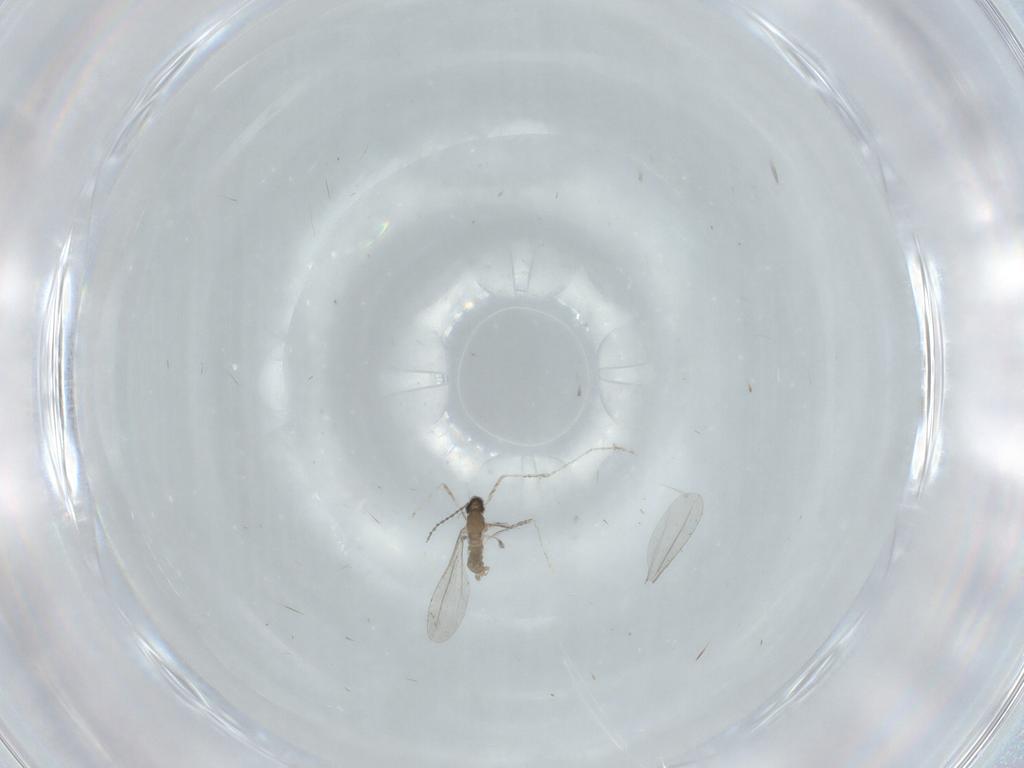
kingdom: Animalia
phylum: Arthropoda
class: Insecta
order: Diptera
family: Cecidomyiidae
